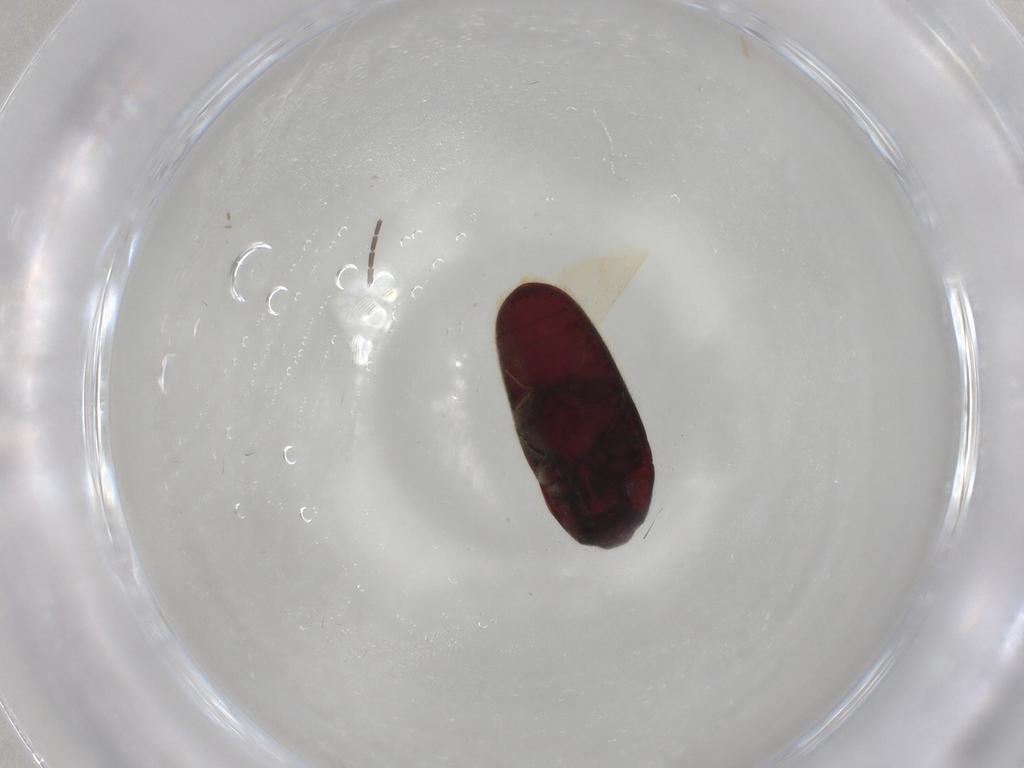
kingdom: Animalia
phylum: Arthropoda
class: Insecta
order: Coleoptera
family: Throscidae
